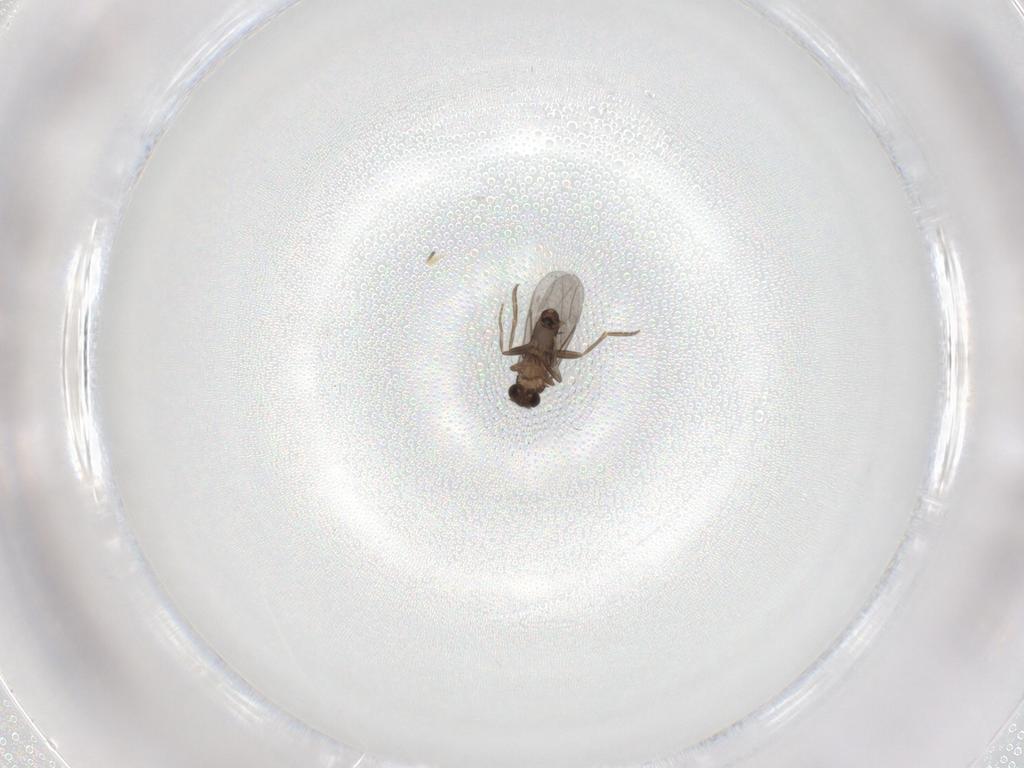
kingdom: Animalia
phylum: Arthropoda
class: Insecta
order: Diptera
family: Ceratopogonidae
